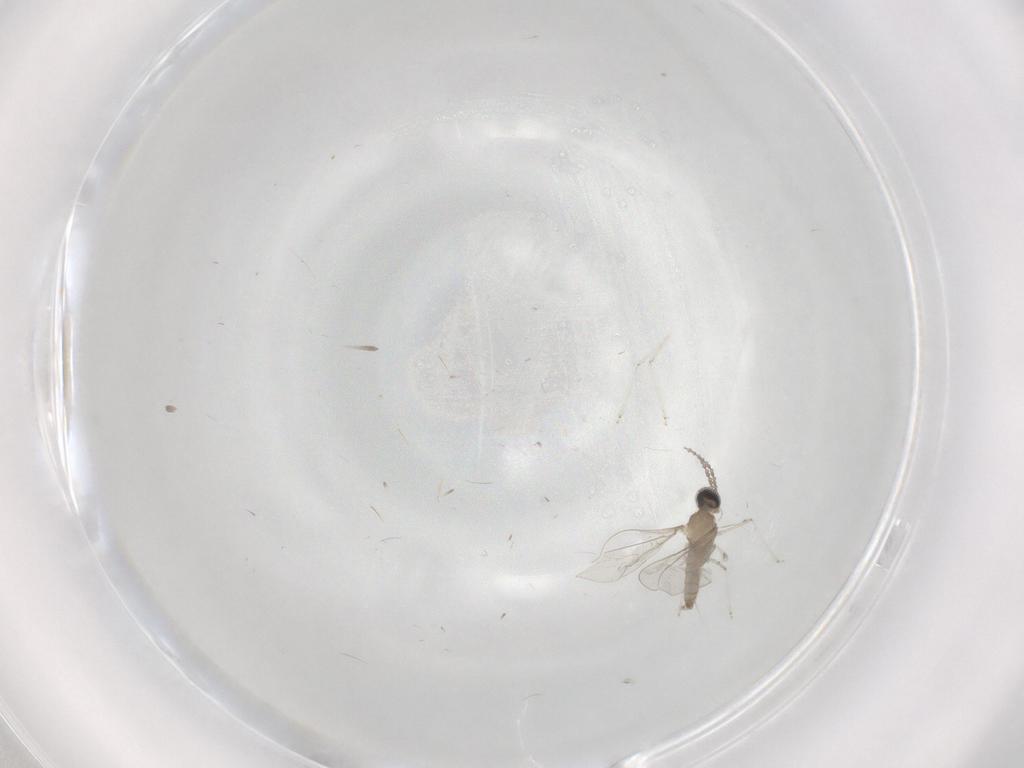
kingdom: Animalia
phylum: Arthropoda
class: Insecta
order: Diptera
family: Cecidomyiidae
